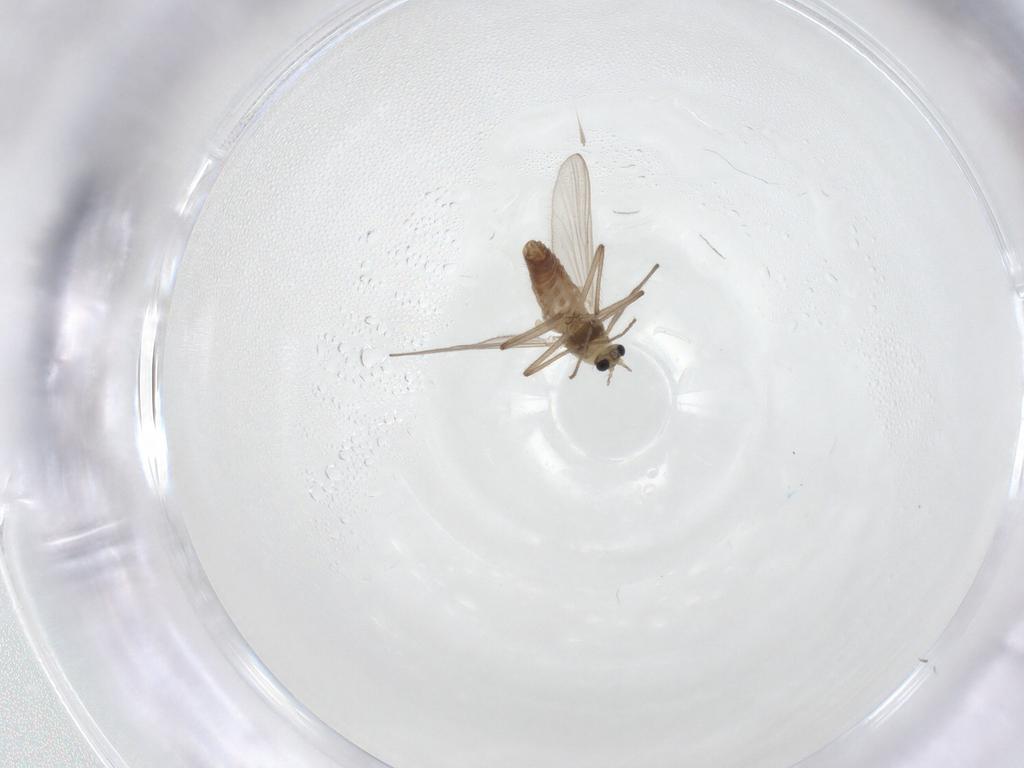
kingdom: Animalia
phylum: Arthropoda
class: Insecta
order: Diptera
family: Chironomidae
